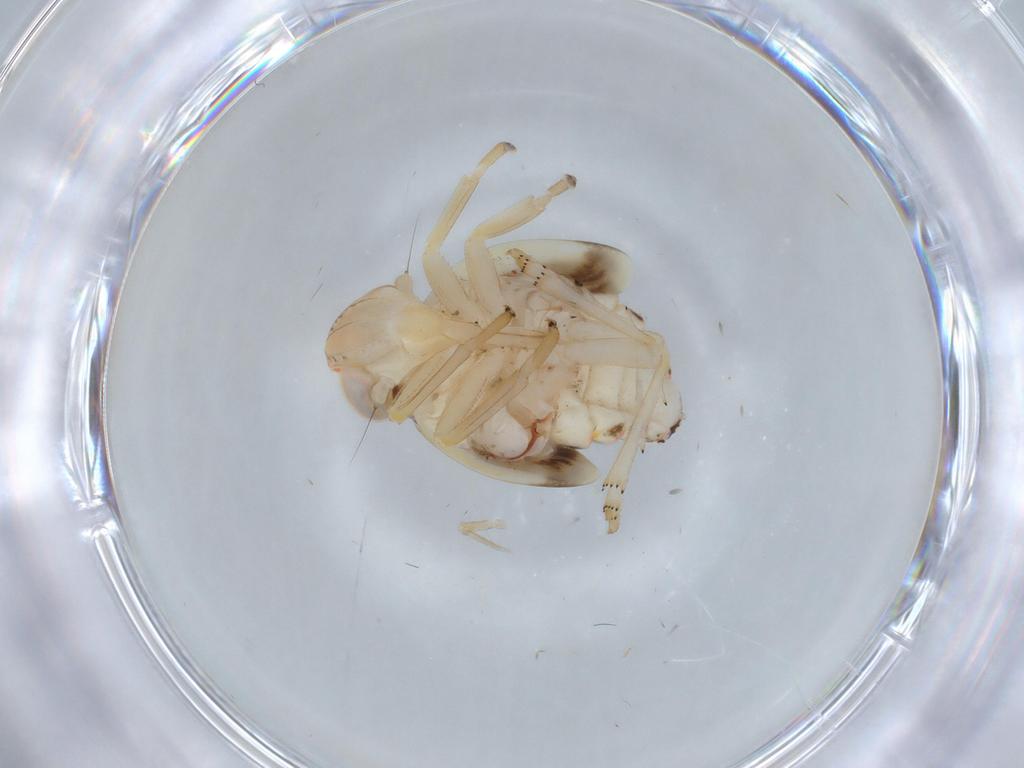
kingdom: Animalia
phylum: Arthropoda
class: Insecta
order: Hemiptera
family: Nogodinidae
